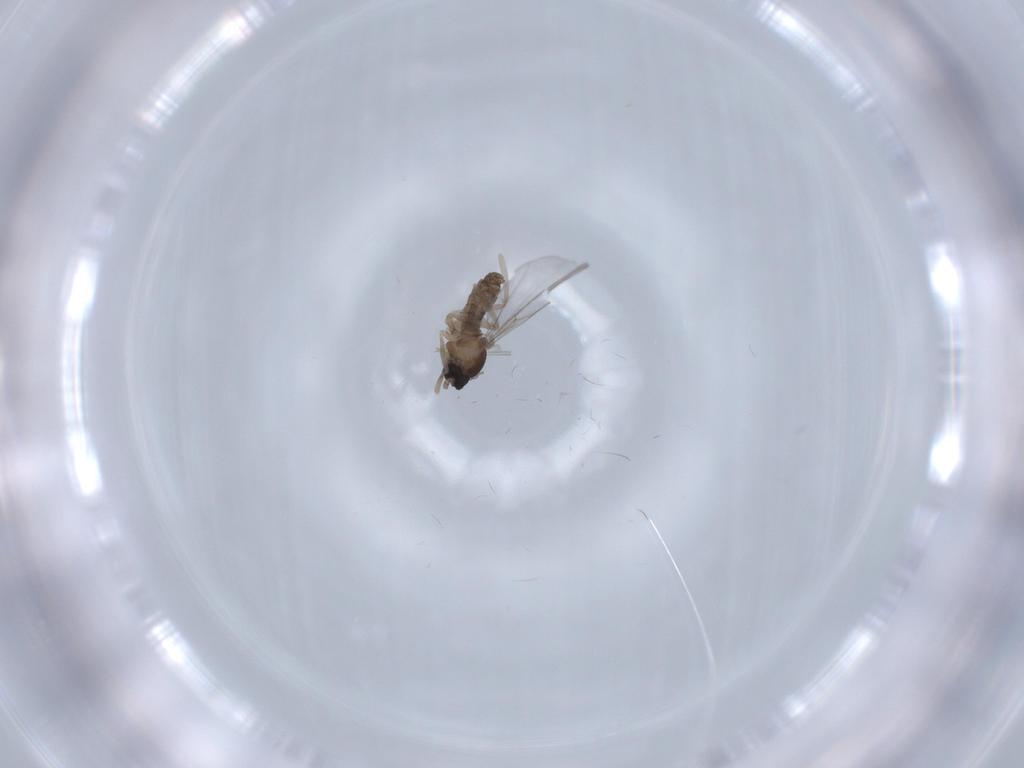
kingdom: Animalia
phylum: Arthropoda
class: Insecta
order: Diptera
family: Cecidomyiidae
